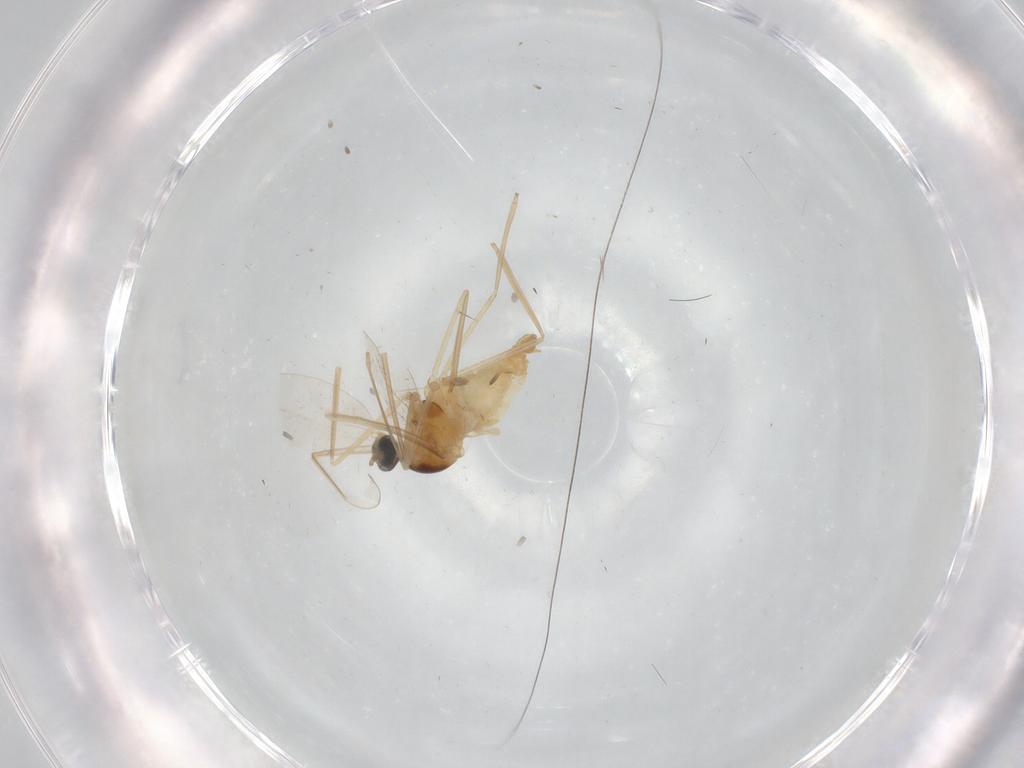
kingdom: Animalia
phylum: Arthropoda
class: Insecta
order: Diptera
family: Cecidomyiidae
